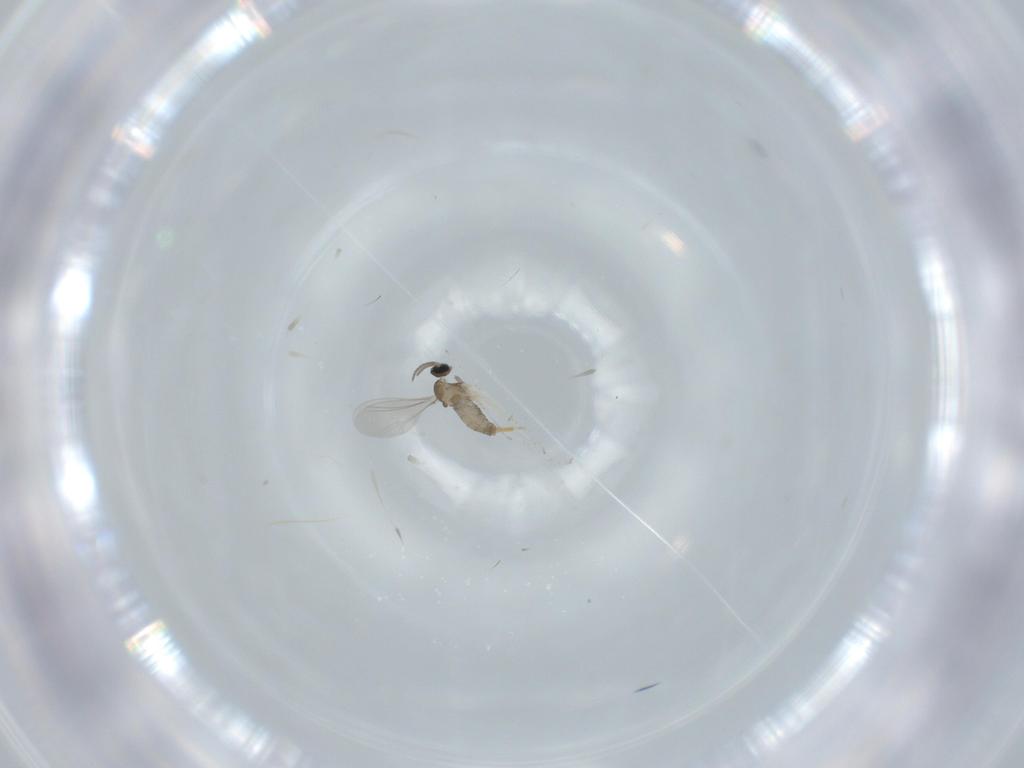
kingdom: Animalia
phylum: Arthropoda
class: Insecta
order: Diptera
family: Cecidomyiidae
